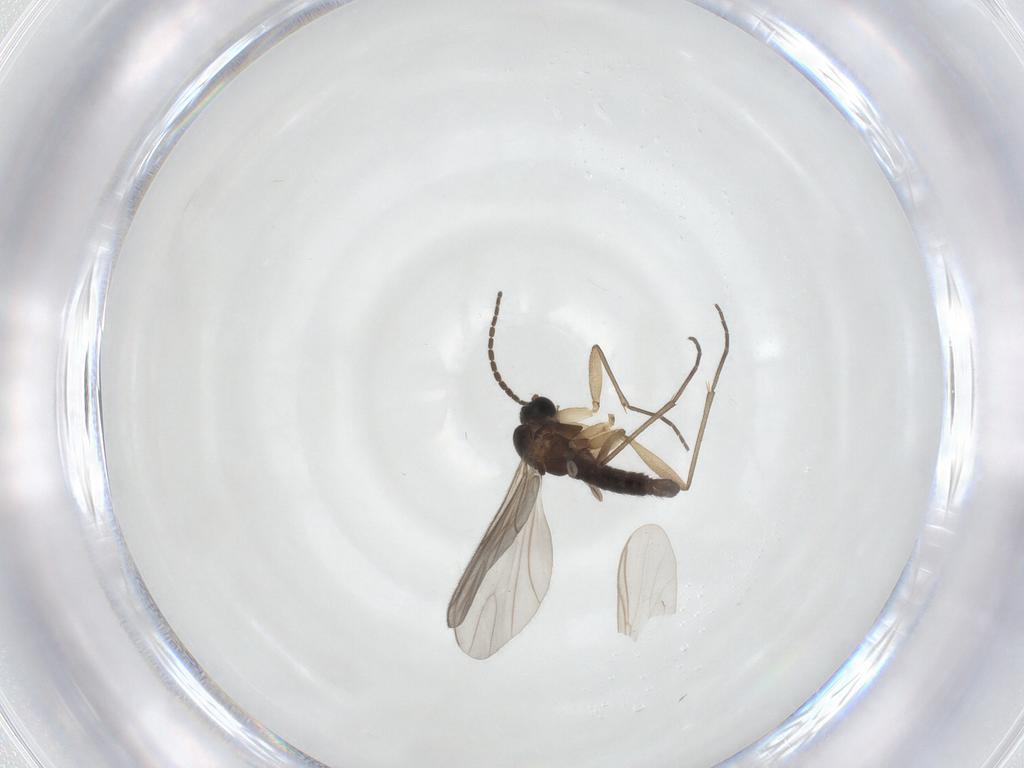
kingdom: Animalia
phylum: Arthropoda
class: Insecta
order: Diptera
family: Sciaridae
